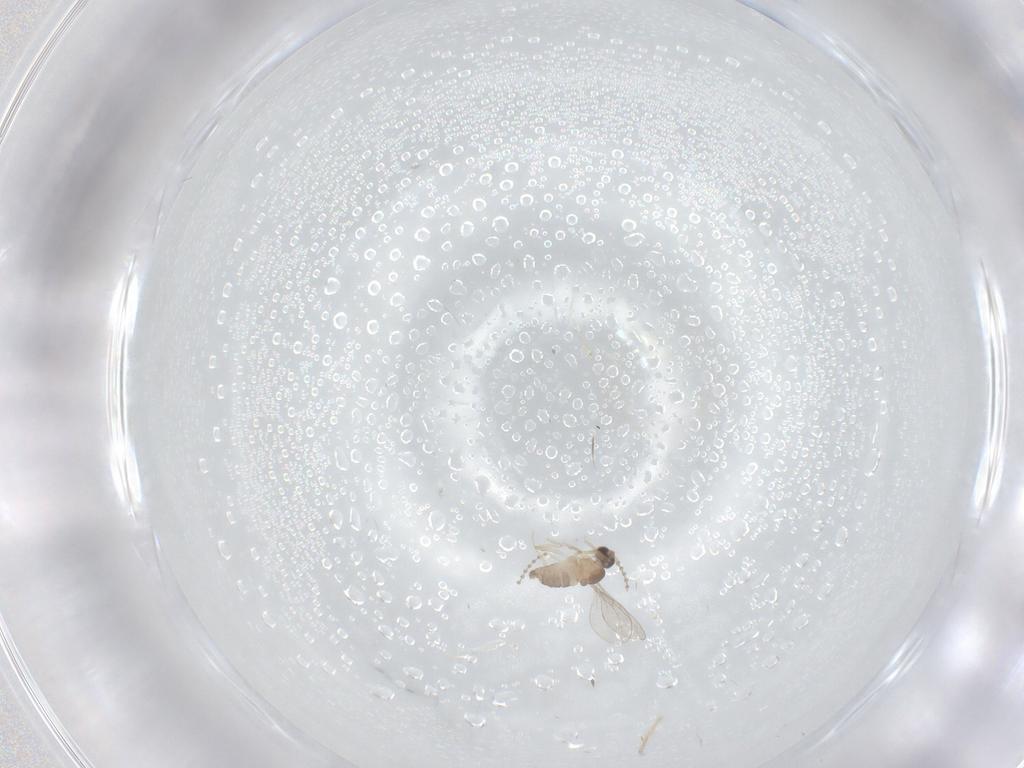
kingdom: Animalia
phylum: Arthropoda
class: Insecta
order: Diptera
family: Cecidomyiidae
